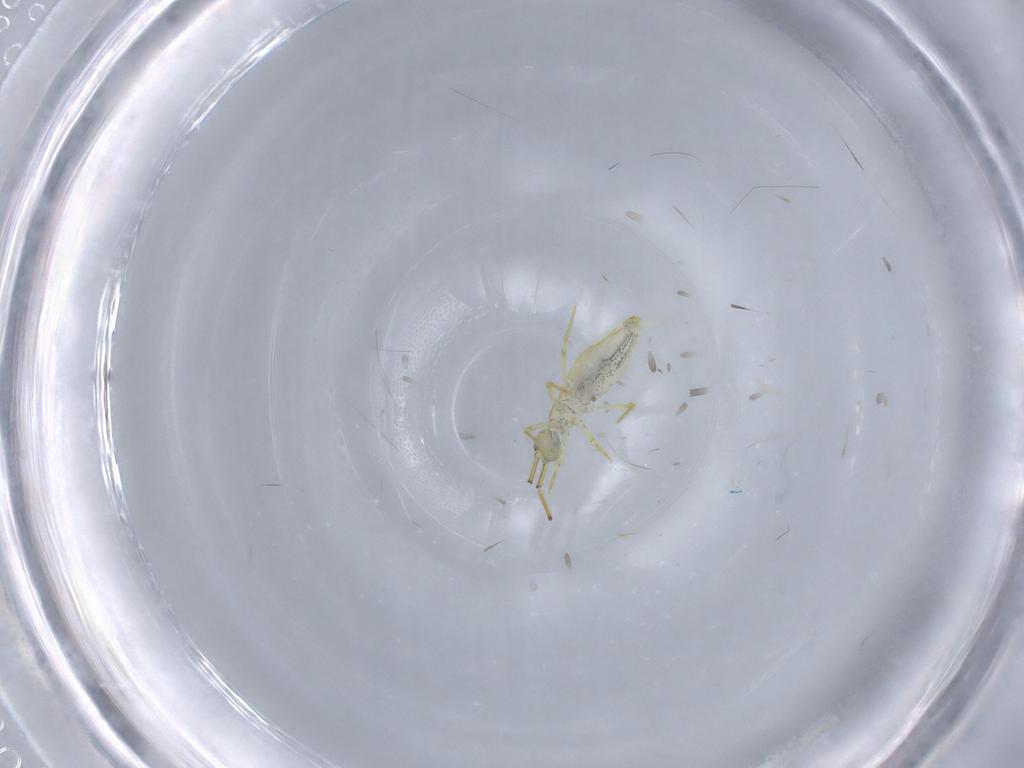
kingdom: Animalia
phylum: Arthropoda
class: Collembola
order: Entomobryomorpha
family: Paronellidae
